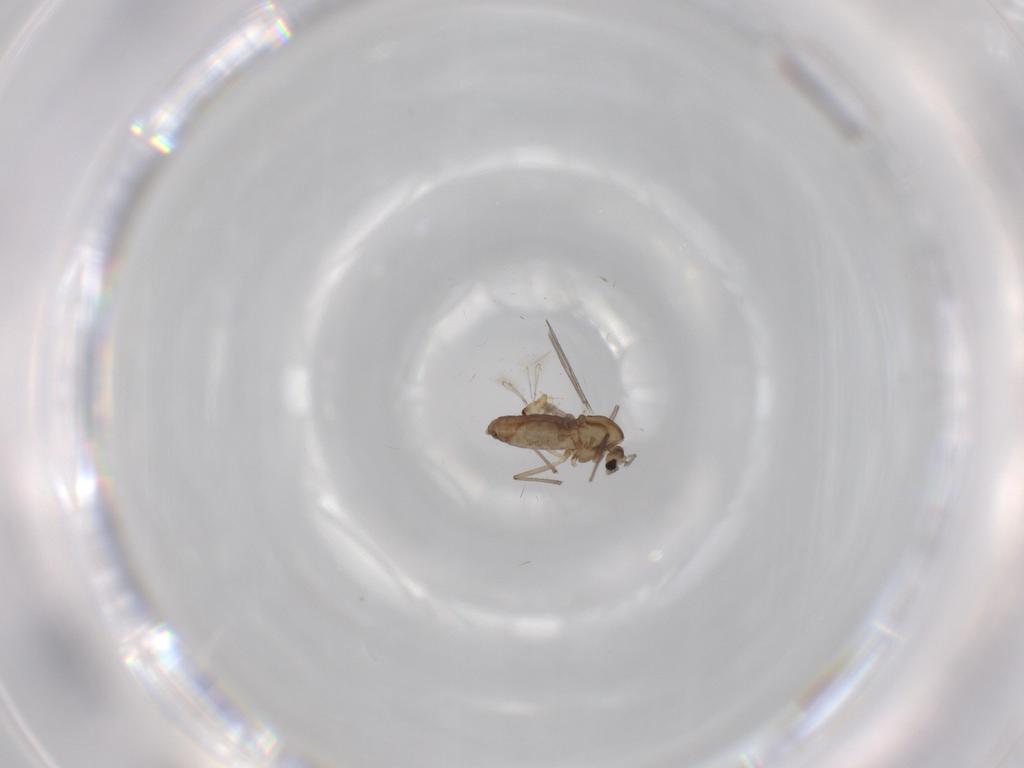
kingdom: Animalia
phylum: Arthropoda
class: Insecta
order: Diptera
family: Chironomidae
